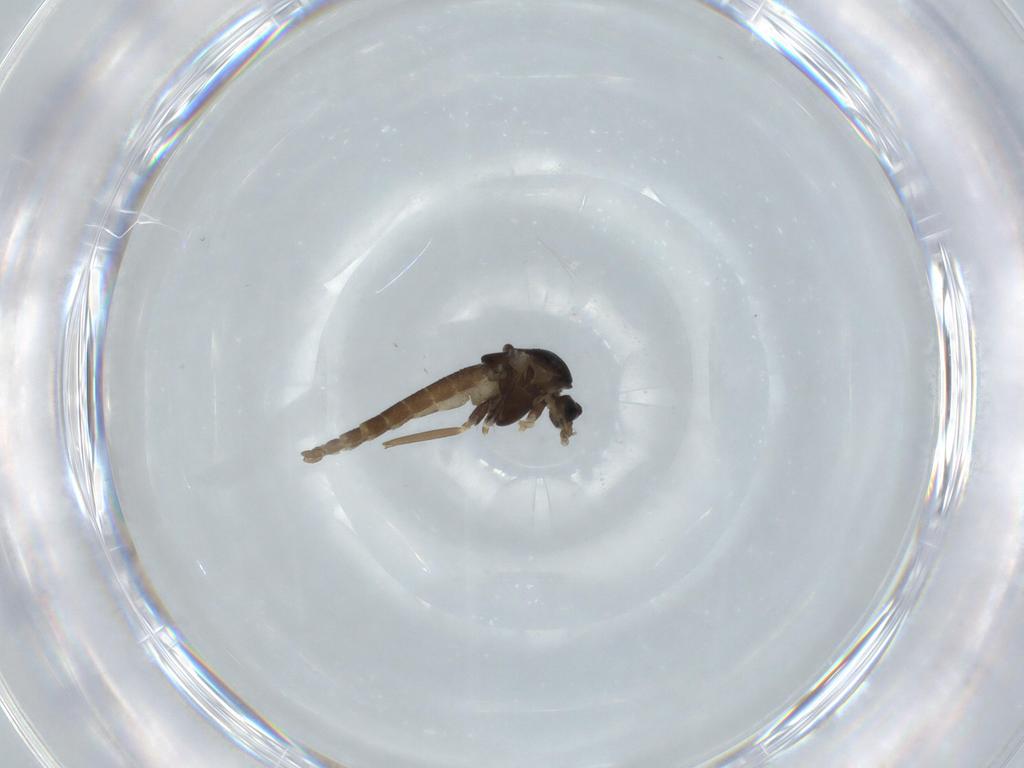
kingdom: Animalia
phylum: Arthropoda
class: Insecta
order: Diptera
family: Chironomidae
